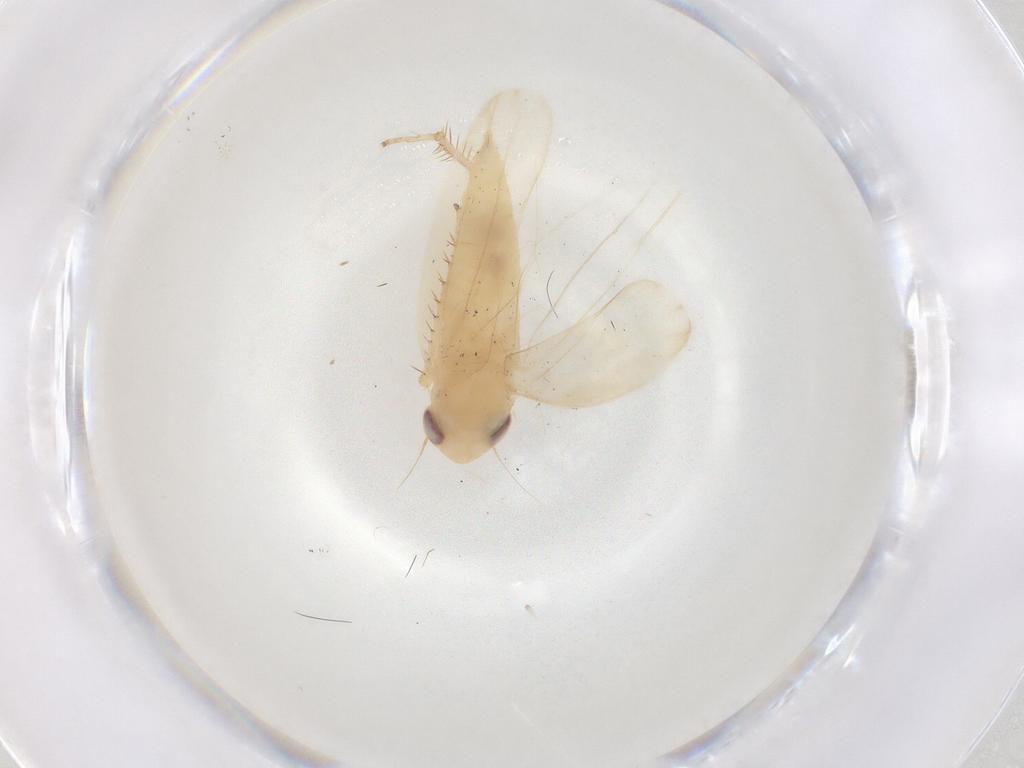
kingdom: Animalia
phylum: Arthropoda
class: Insecta
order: Hemiptera
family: Cicadellidae
